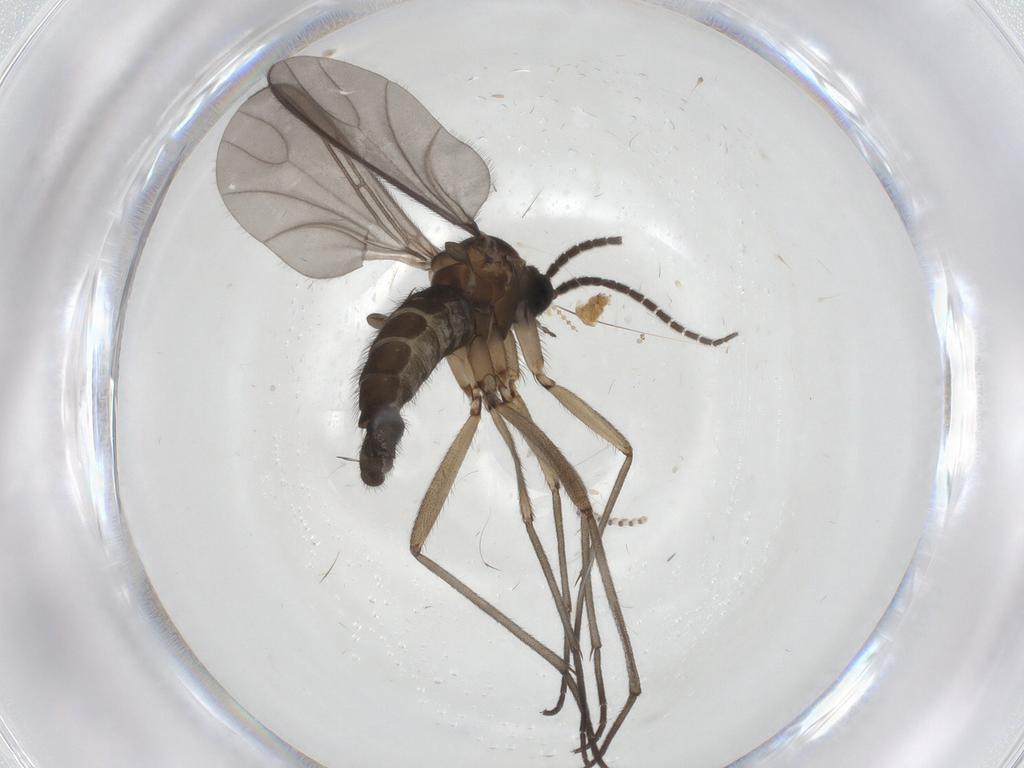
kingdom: Animalia
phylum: Arthropoda
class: Insecta
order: Diptera
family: Sciaridae
